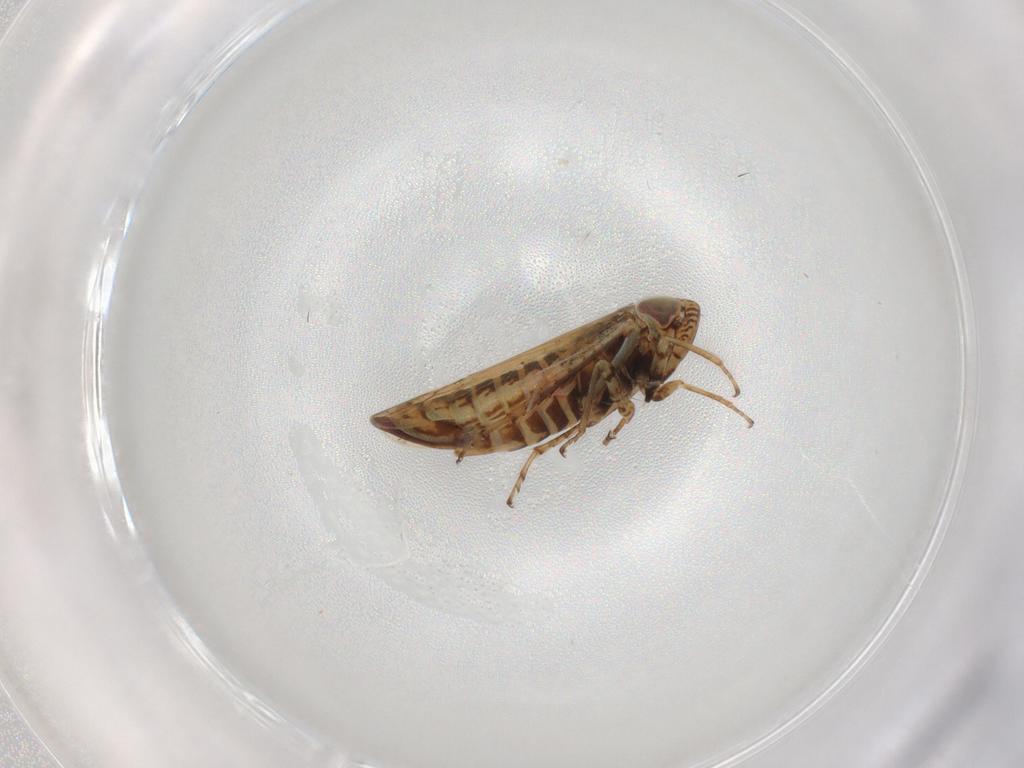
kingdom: Animalia
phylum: Arthropoda
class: Insecta
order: Hemiptera
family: Cicadellidae
